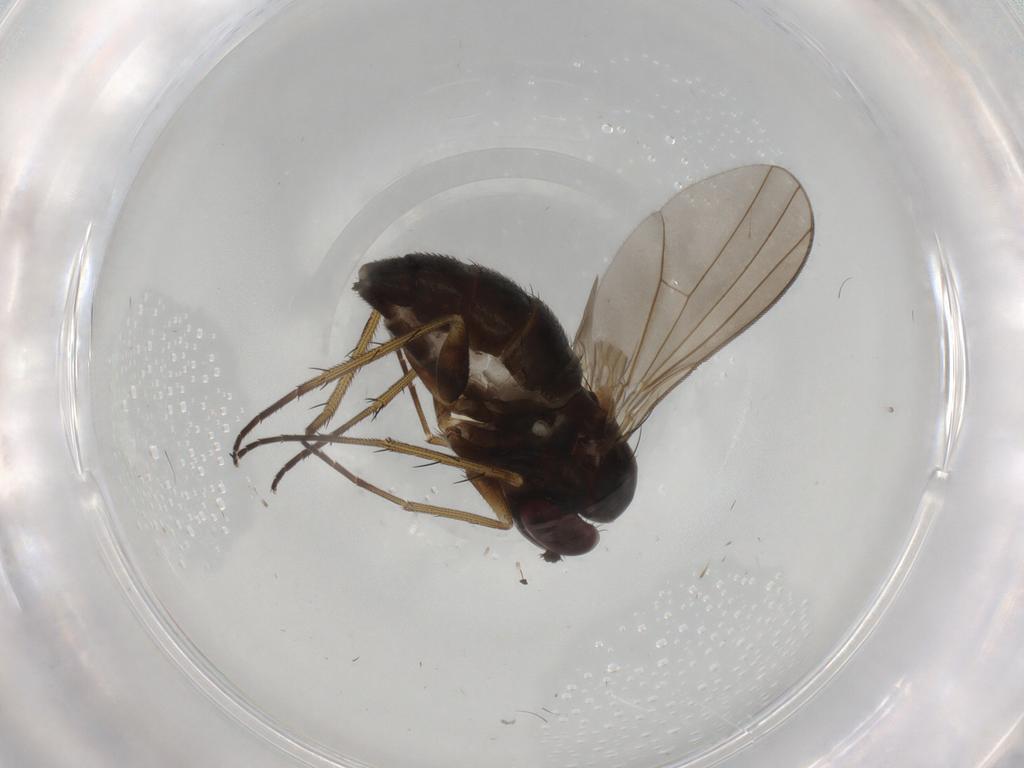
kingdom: Animalia
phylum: Arthropoda
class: Insecta
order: Diptera
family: Dolichopodidae
